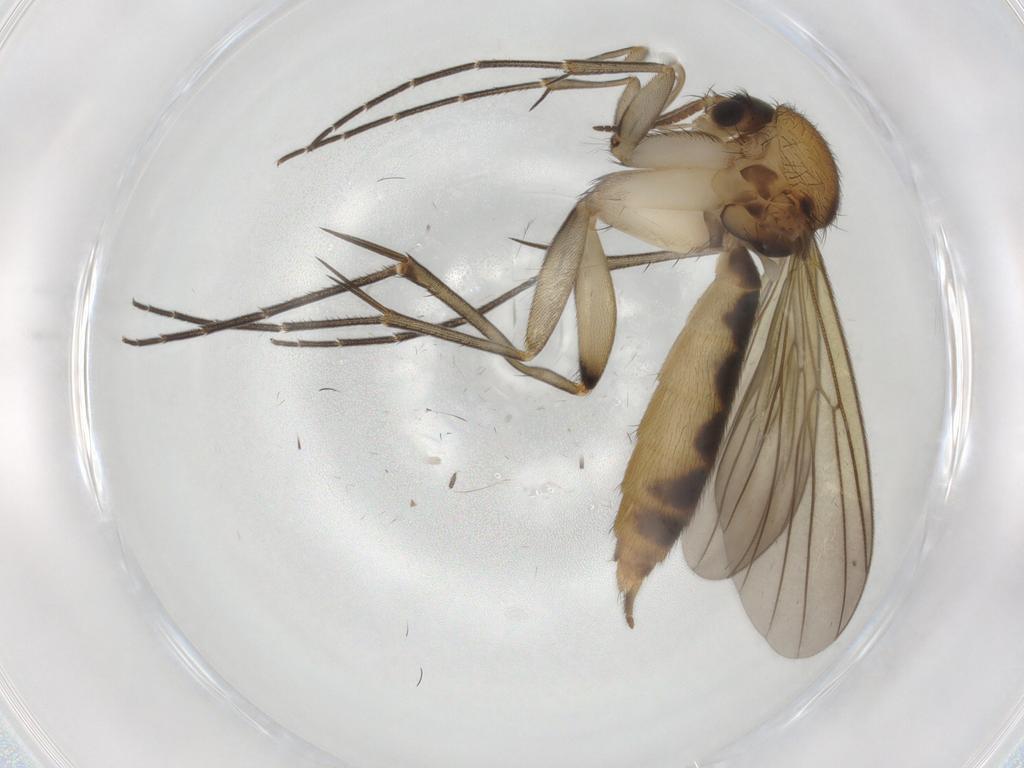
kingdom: Animalia
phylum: Arthropoda
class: Insecta
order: Diptera
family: Mycetophilidae
